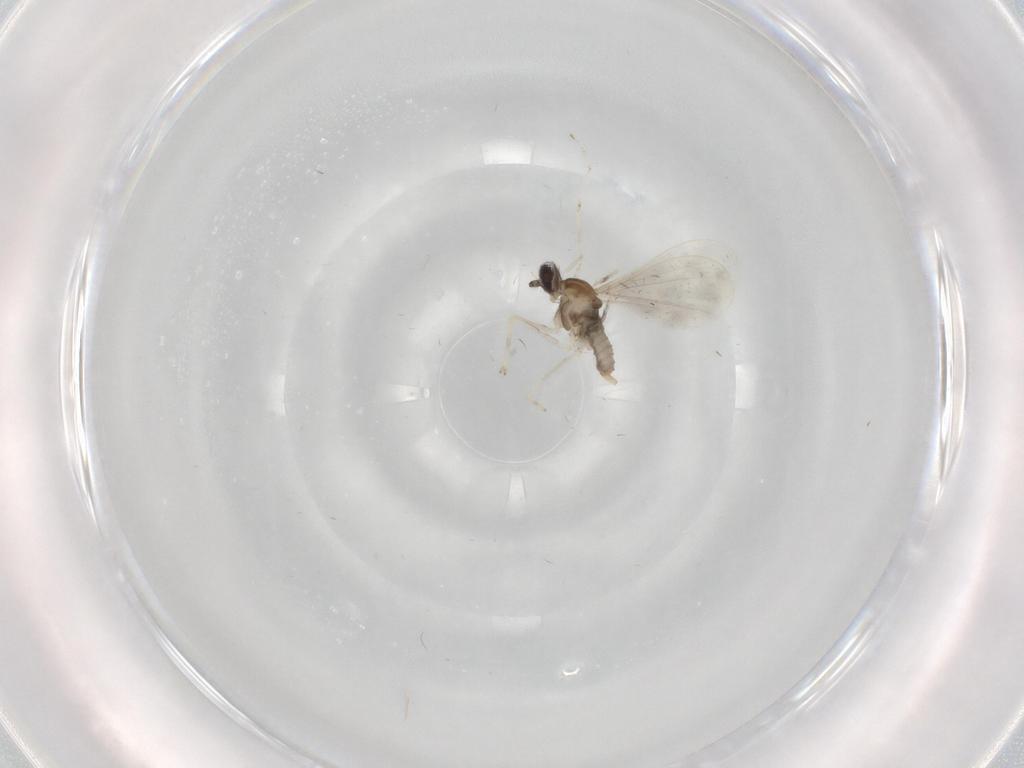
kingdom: Animalia
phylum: Arthropoda
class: Insecta
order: Diptera
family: Cecidomyiidae
